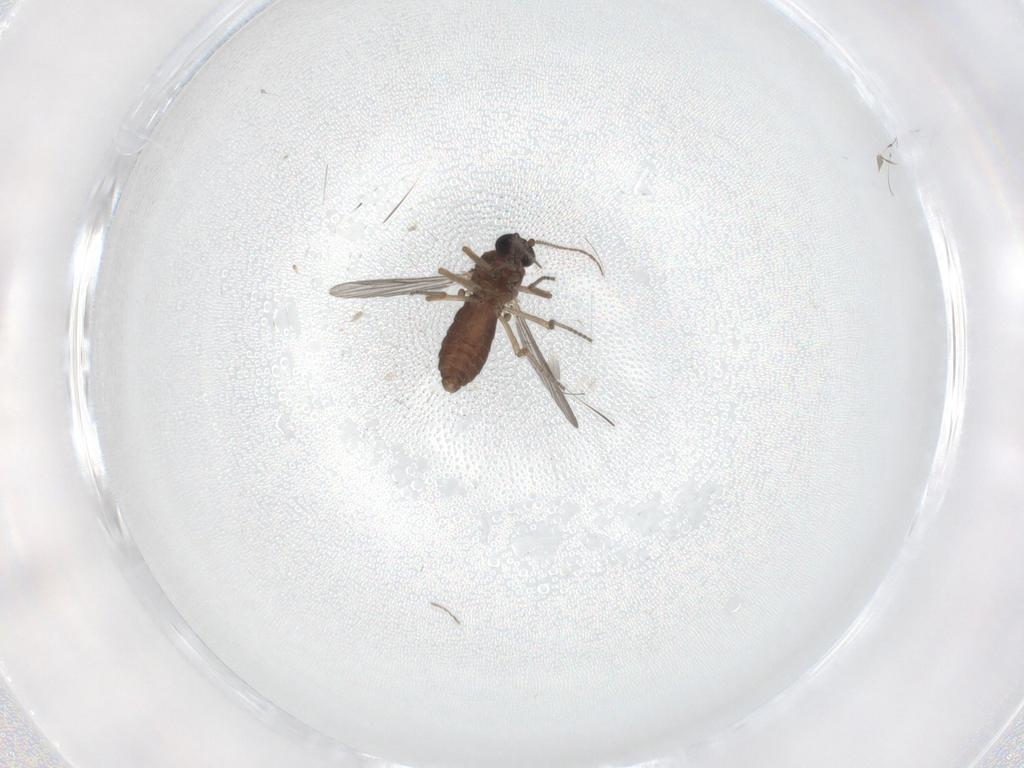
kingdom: Animalia
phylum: Arthropoda
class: Insecta
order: Diptera
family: Ceratopogonidae
